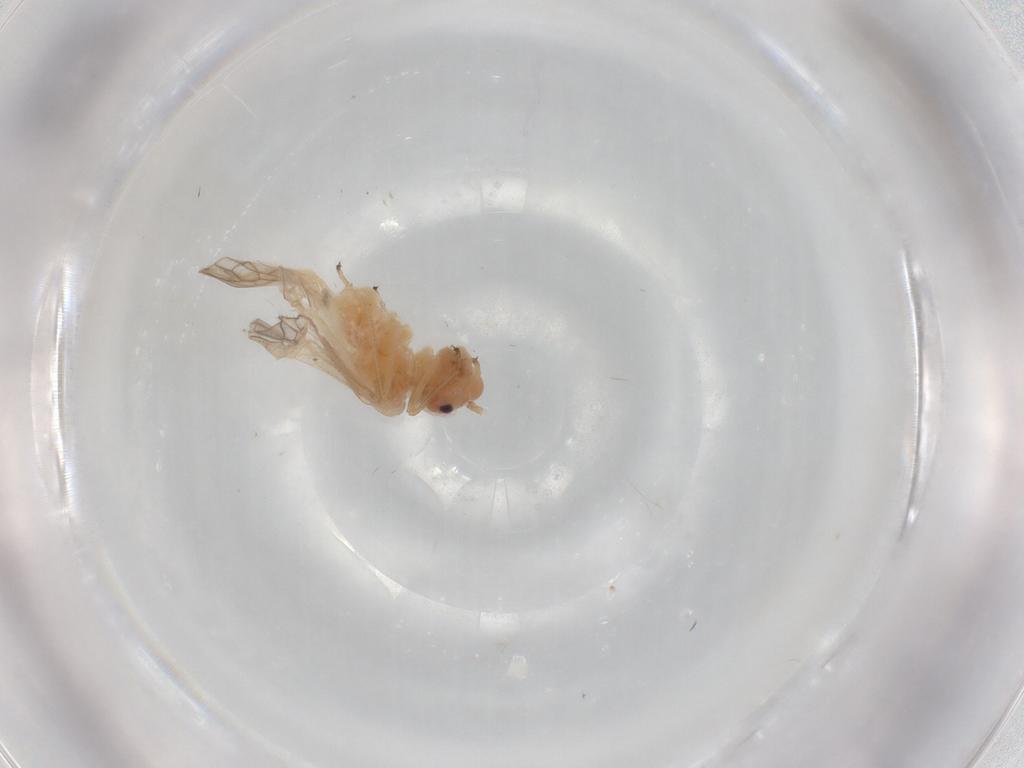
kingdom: Animalia
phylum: Arthropoda
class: Insecta
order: Psocodea
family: Caeciliusidae
